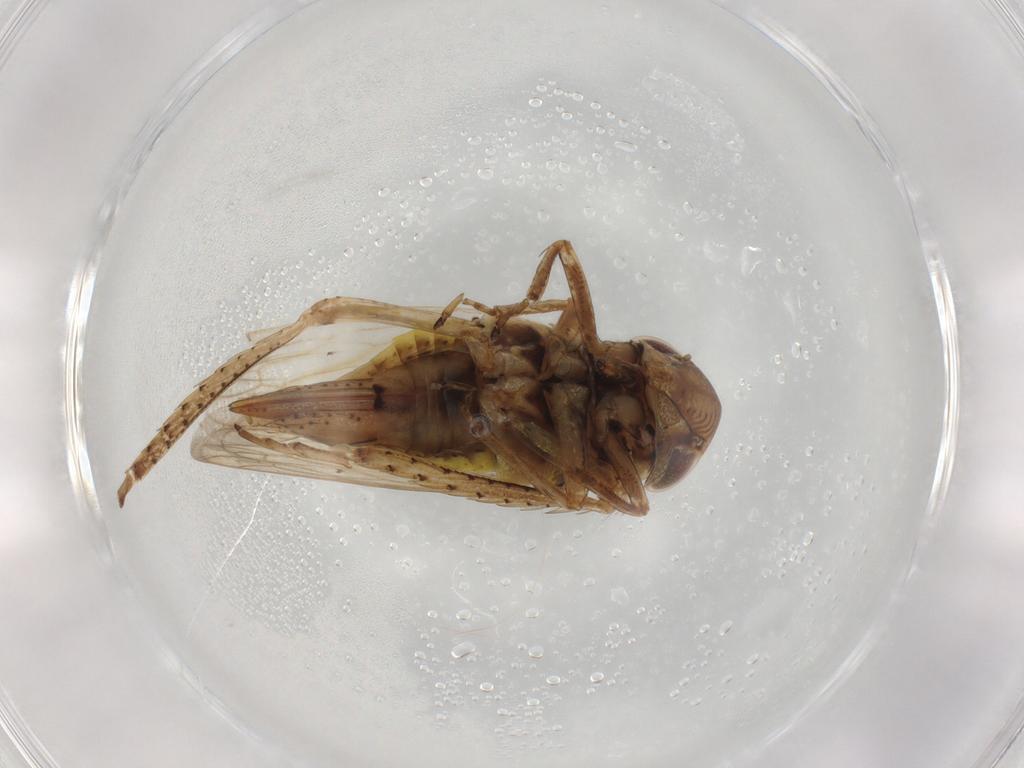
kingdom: Animalia
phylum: Arthropoda
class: Insecta
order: Hemiptera
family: Cicadellidae
